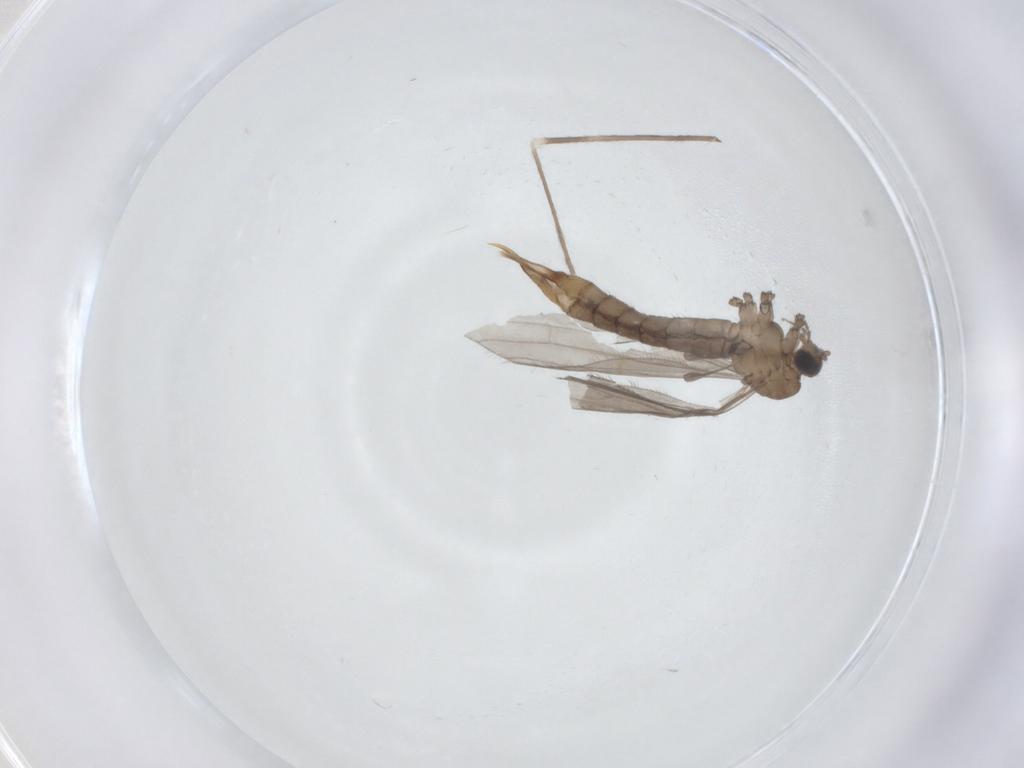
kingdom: Animalia
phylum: Arthropoda
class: Insecta
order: Diptera
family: Limoniidae
